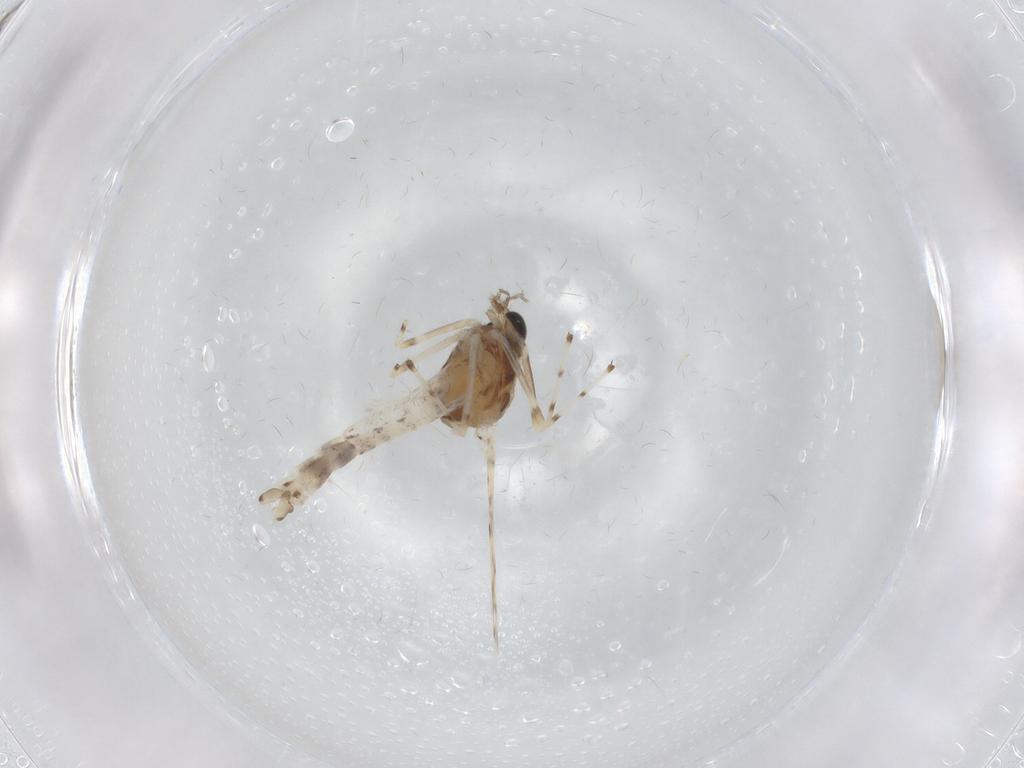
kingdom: Animalia
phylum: Arthropoda
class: Insecta
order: Diptera
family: Chironomidae
